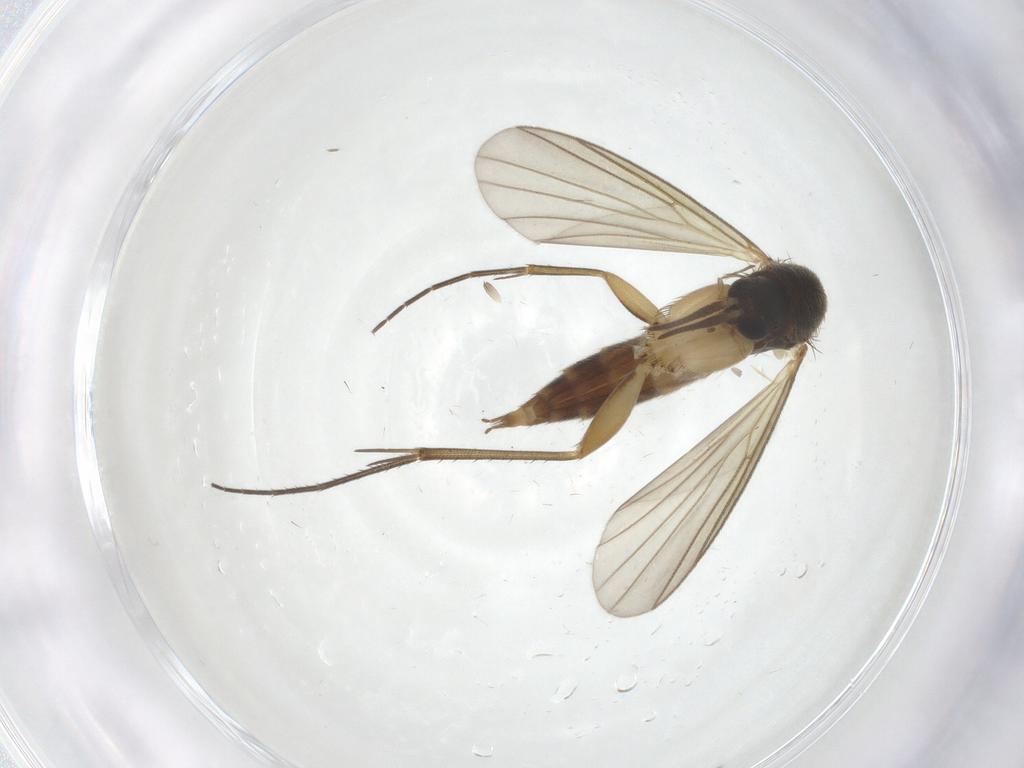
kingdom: Animalia
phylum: Arthropoda
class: Insecta
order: Diptera
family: Mycetophilidae
